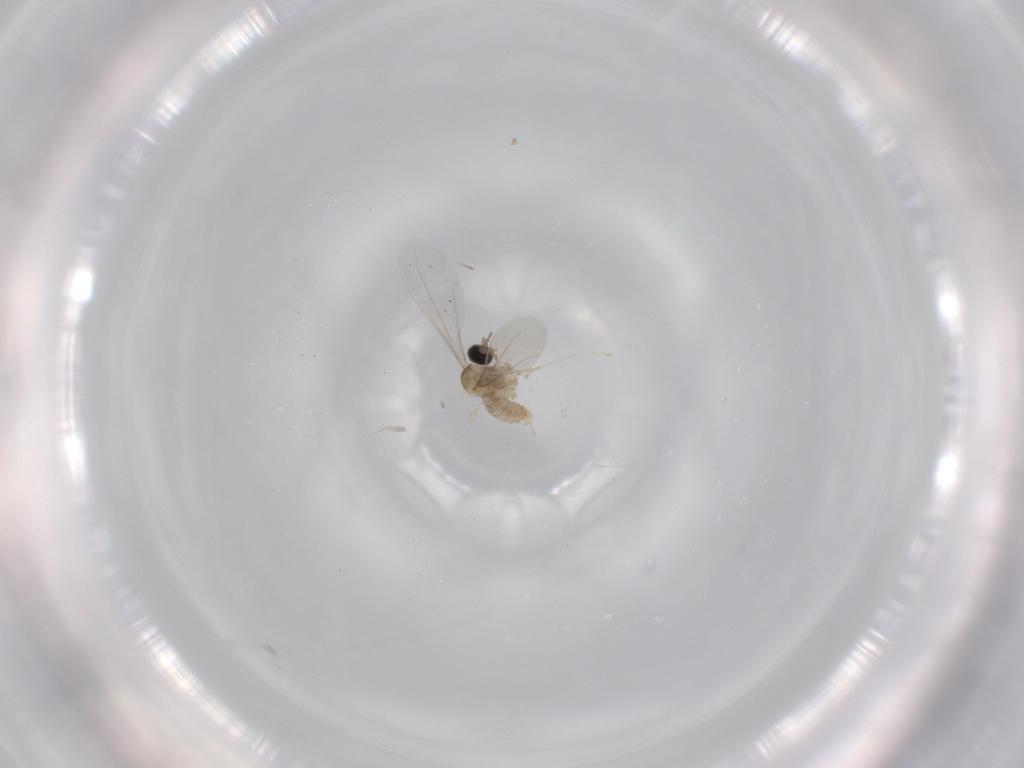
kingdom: Animalia
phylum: Arthropoda
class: Insecta
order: Diptera
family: Cecidomyiidae
